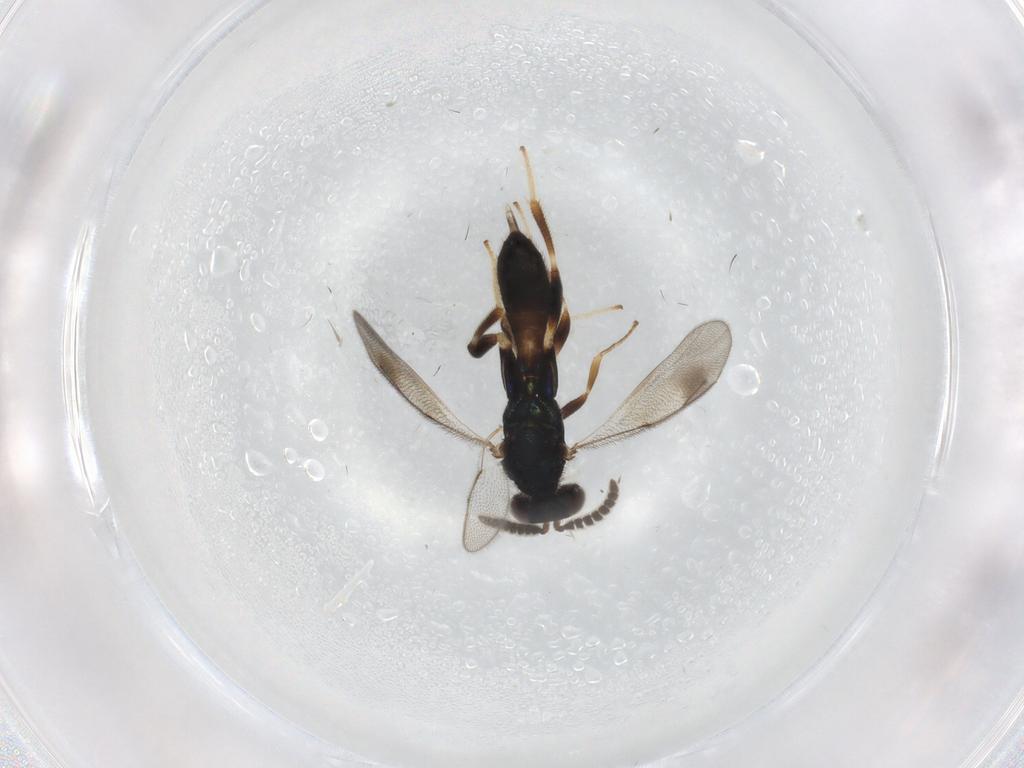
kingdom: Animalia
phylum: Arthropoda
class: Insecta
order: Hymenoptera
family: Cleonyminae
